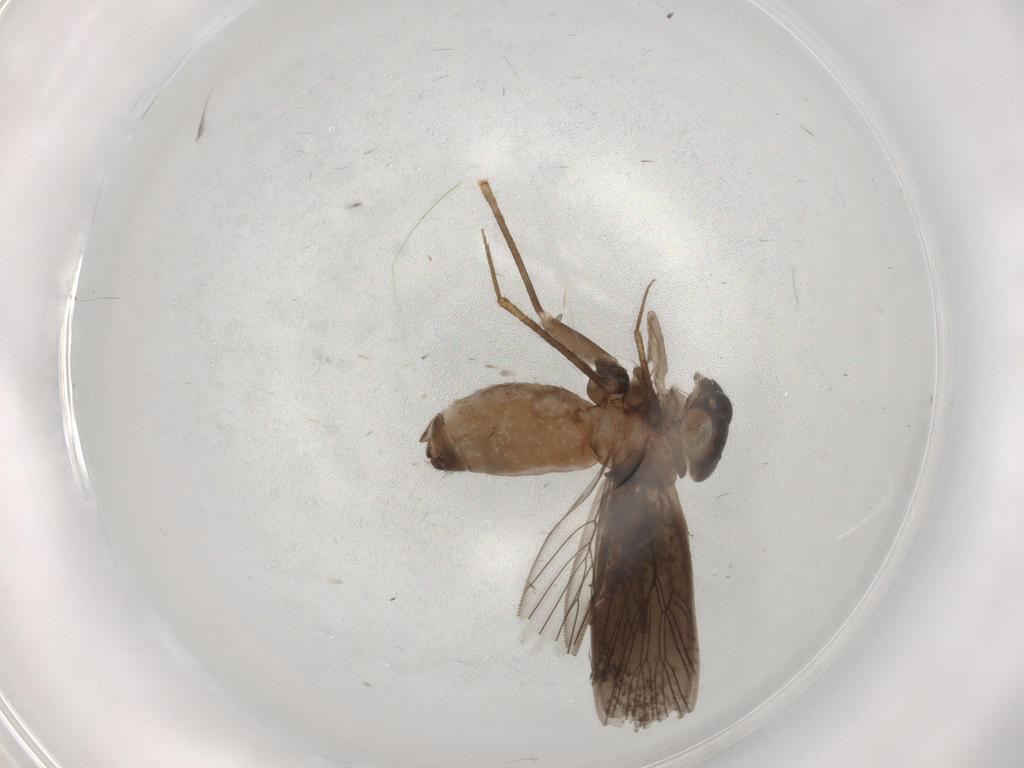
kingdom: Animalia
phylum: Arthropoda
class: Insecta
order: Psocodea
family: Lepidopsocidae
